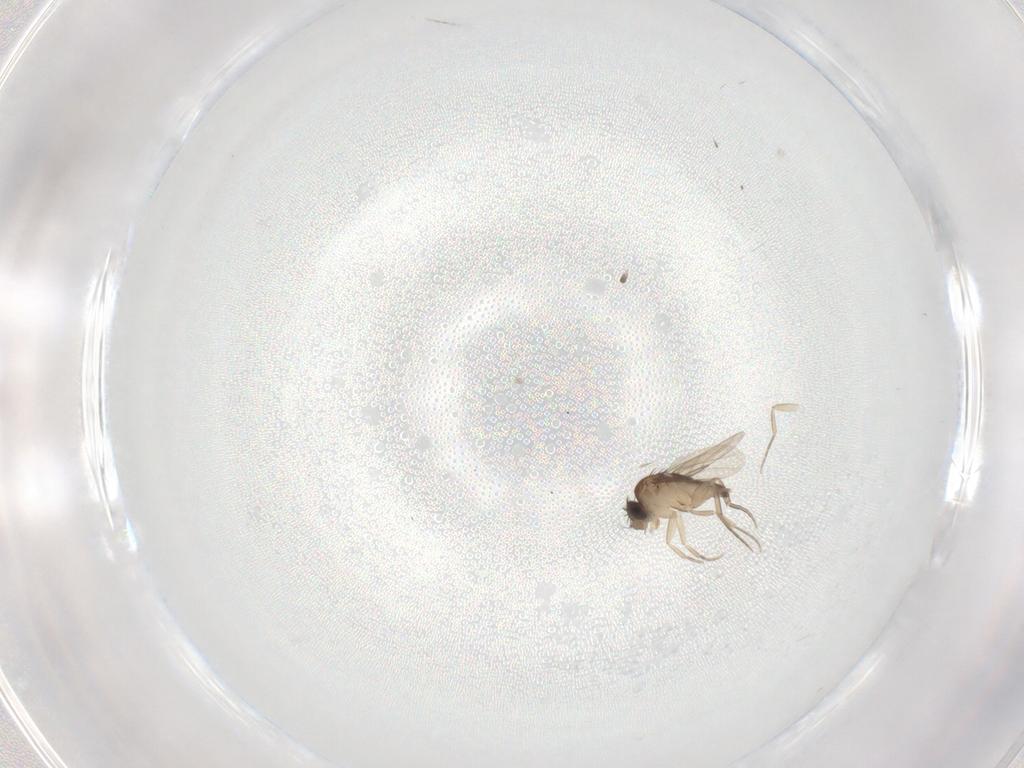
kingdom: Animalia
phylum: Arthropoda
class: Insecta
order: Diptera
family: Phoridae
